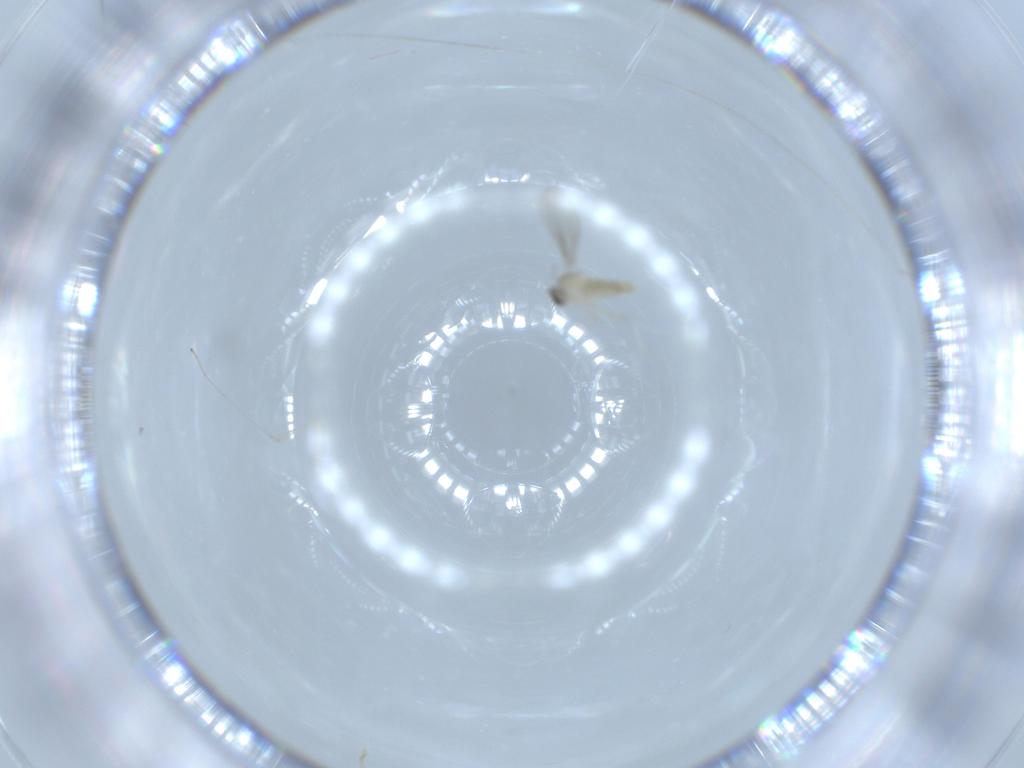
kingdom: Animalia
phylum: Arthropoda
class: Insecta
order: Diptera
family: Cecidomyiidae
